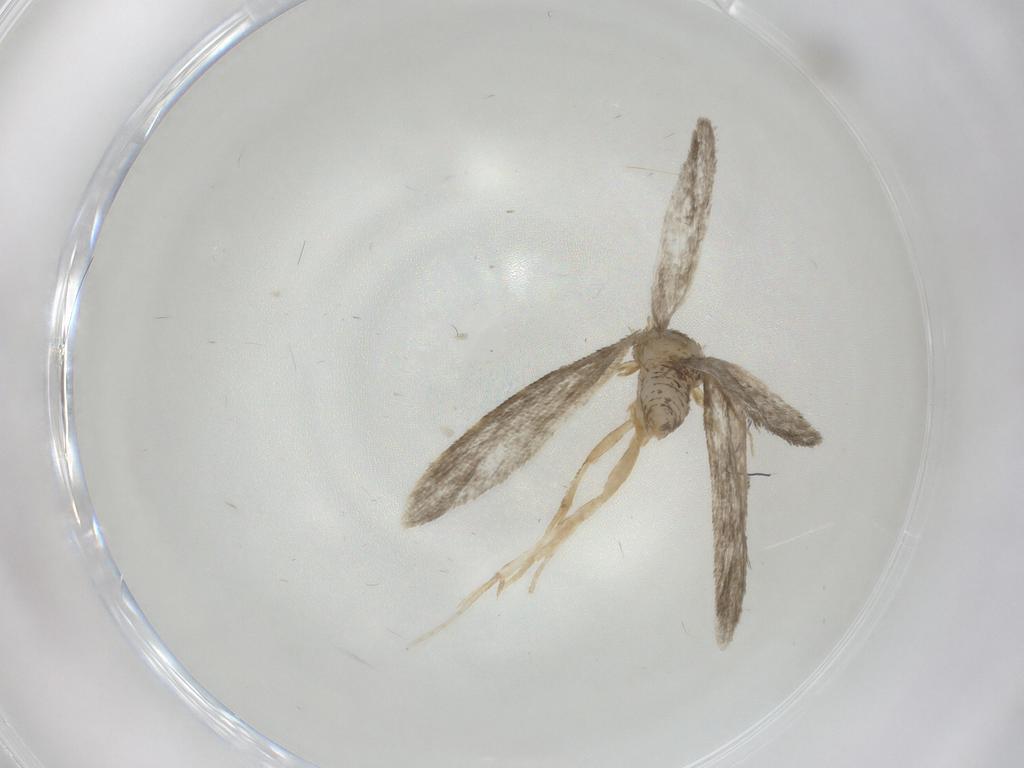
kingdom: Animalia
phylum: Arthropoda
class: Insecta
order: Lepidoptera
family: Psychidae
